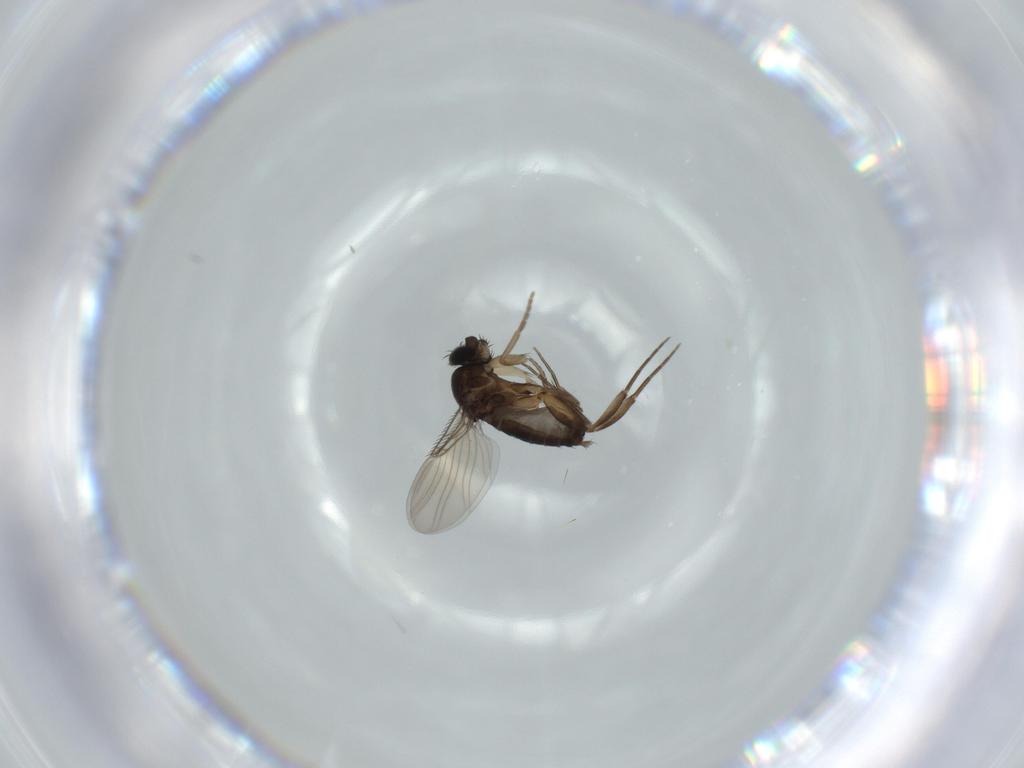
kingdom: Animalia
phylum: Arthropoda
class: Insecta
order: Diptera
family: Phoridae
